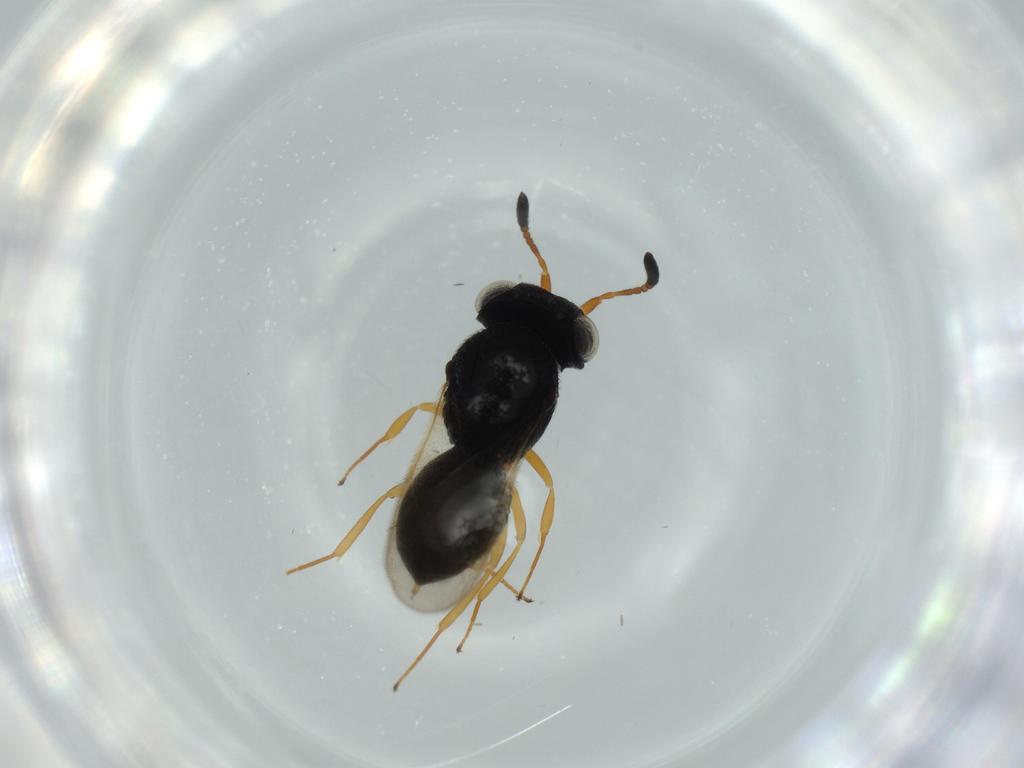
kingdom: Animalia
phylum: Arthropoda
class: Insecta
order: Hymenoptera
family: Scelionidae
